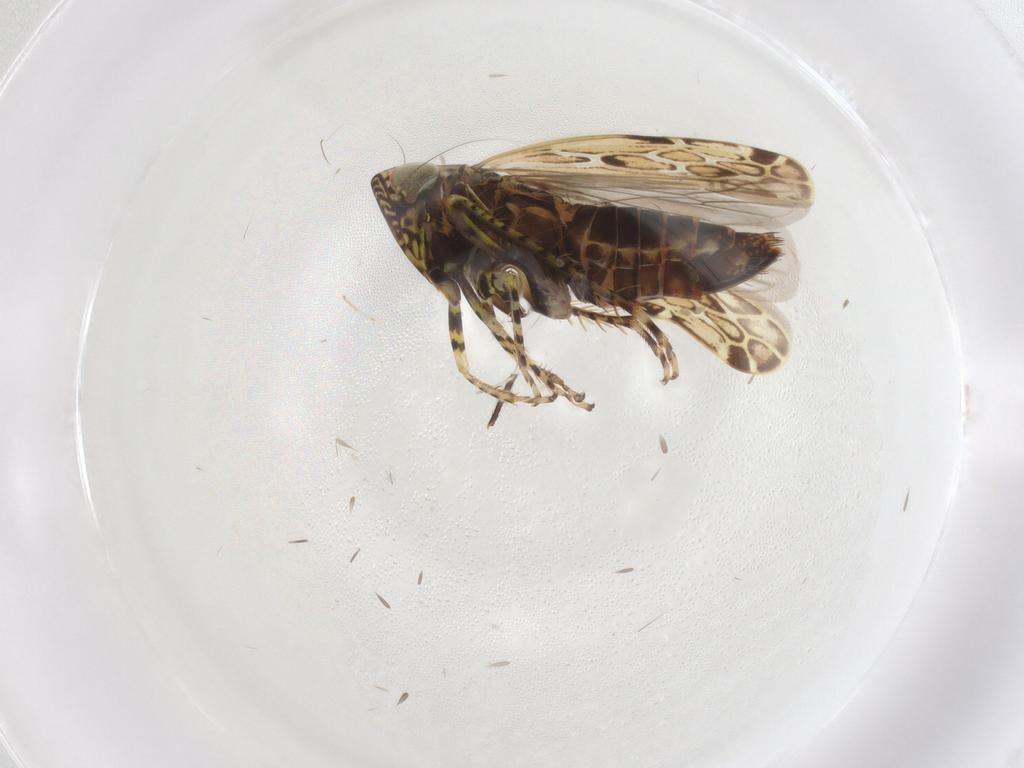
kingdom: Animalia
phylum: Arthropoda
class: Insecta
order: Hemiptera
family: Cicadellidae
